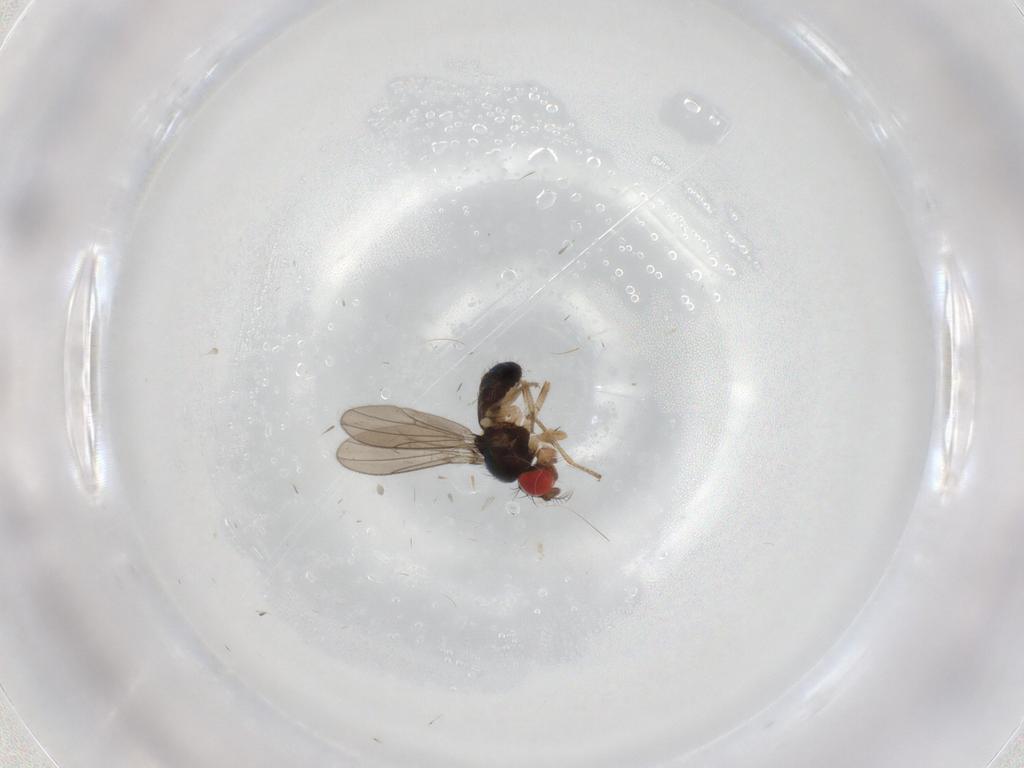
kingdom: Animalia
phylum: Arthropoda
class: Insecta
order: Diptera
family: Drosophilidae
